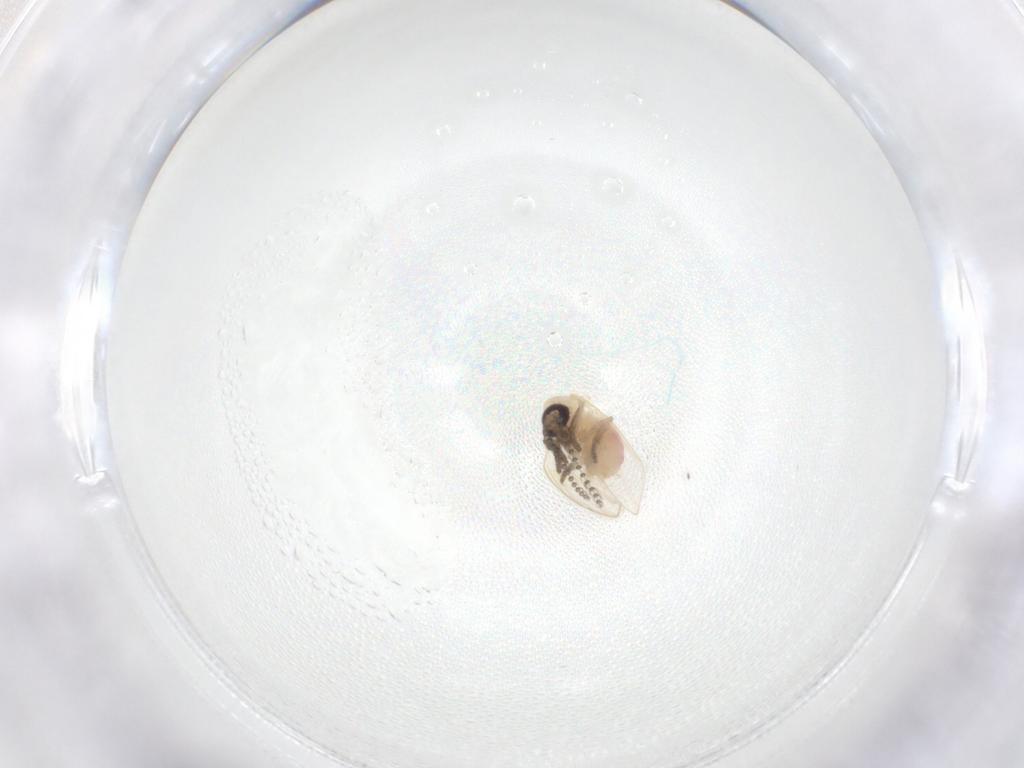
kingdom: Animalia
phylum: Arthropoda
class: Insecta
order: Diptera
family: Psychodidae
